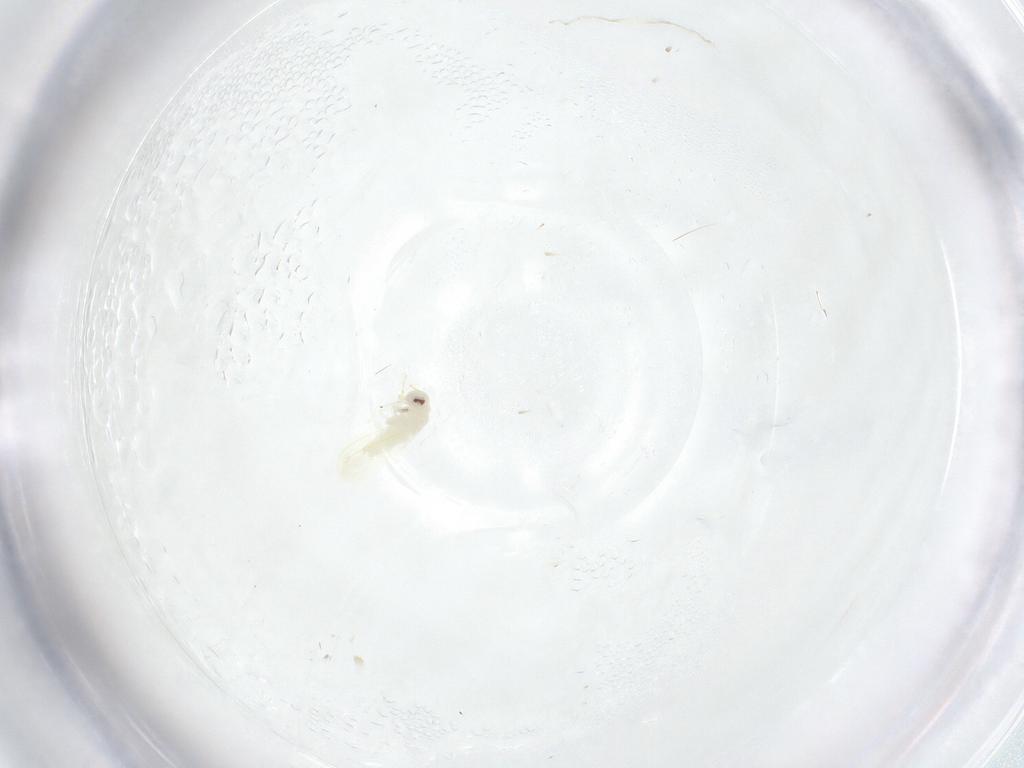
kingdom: Animalia
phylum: Arthropoda
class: Insecta
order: Hemiptera
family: Aleyrodidae
